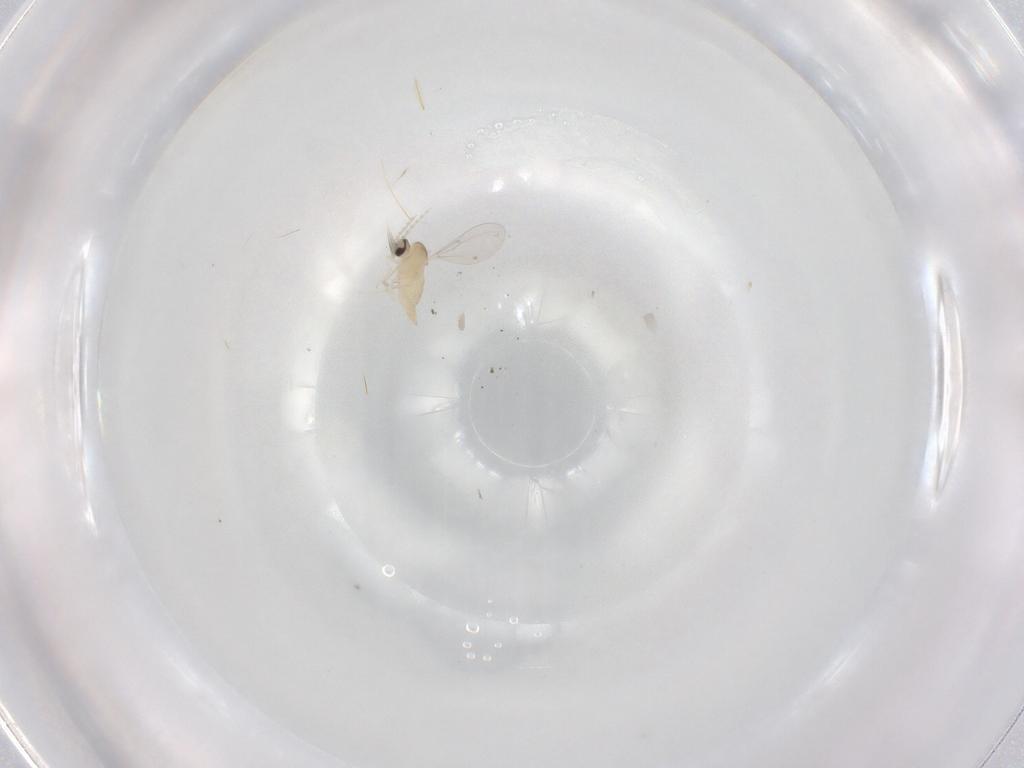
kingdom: Animalia
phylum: Arthropoda
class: Insecta
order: Diptera
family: Cecidomyiidae
